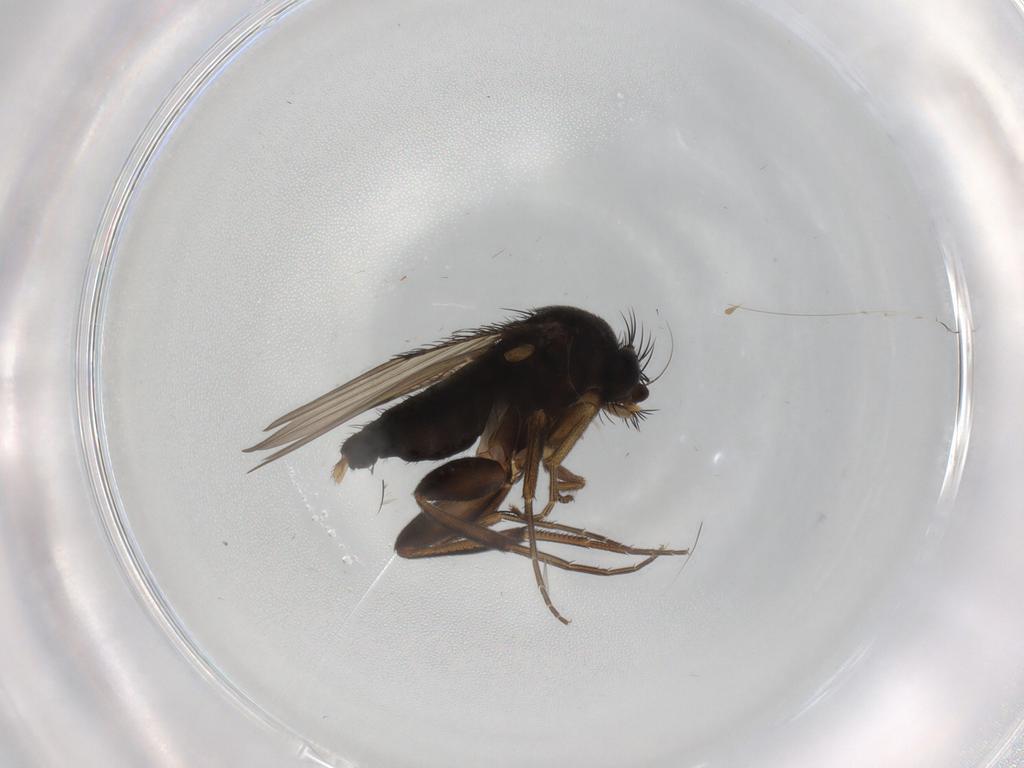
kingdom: Animalia
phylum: Arthropoda
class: Insecta
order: Diptera
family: Phoridae
